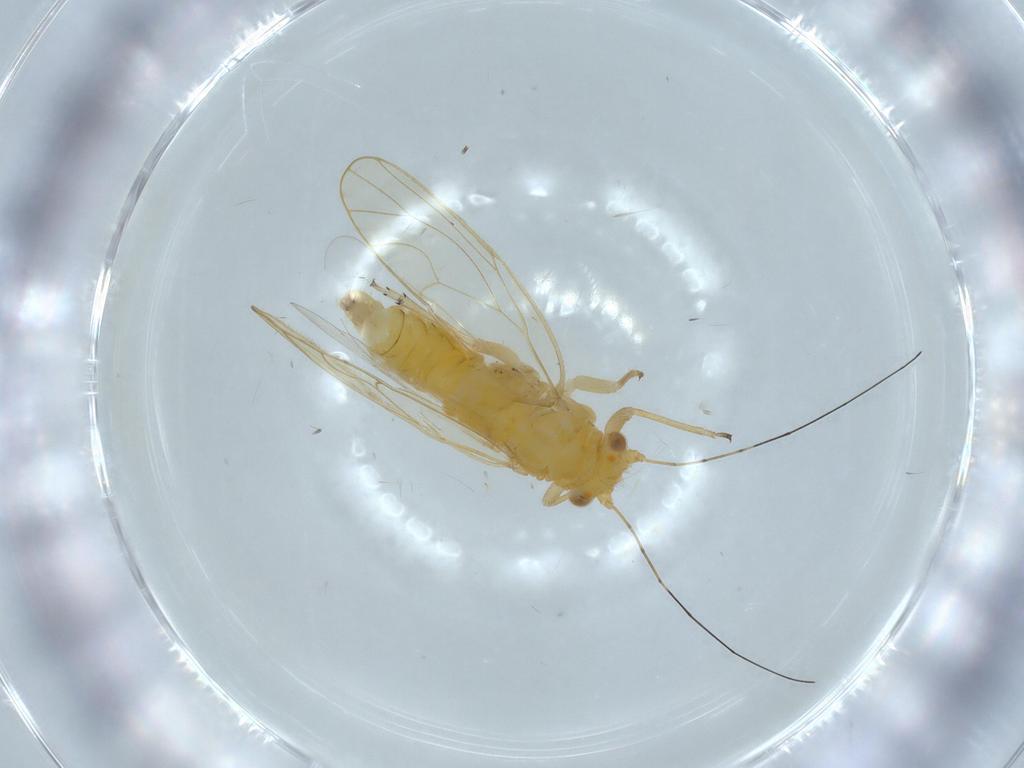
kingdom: Animalia
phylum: Arthropoda
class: Insecta
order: Hemiptera
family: Psyllidae
